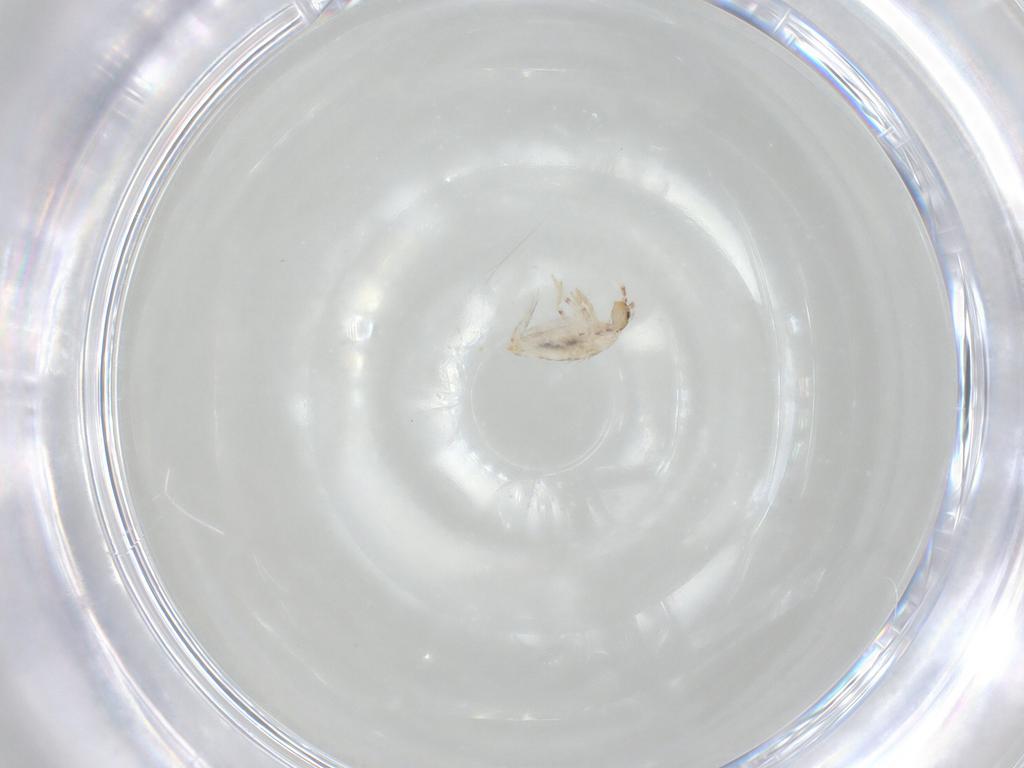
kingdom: Animalia
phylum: Arthropoda
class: Collembola
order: Entomobryomorpha
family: Entomobryidae
